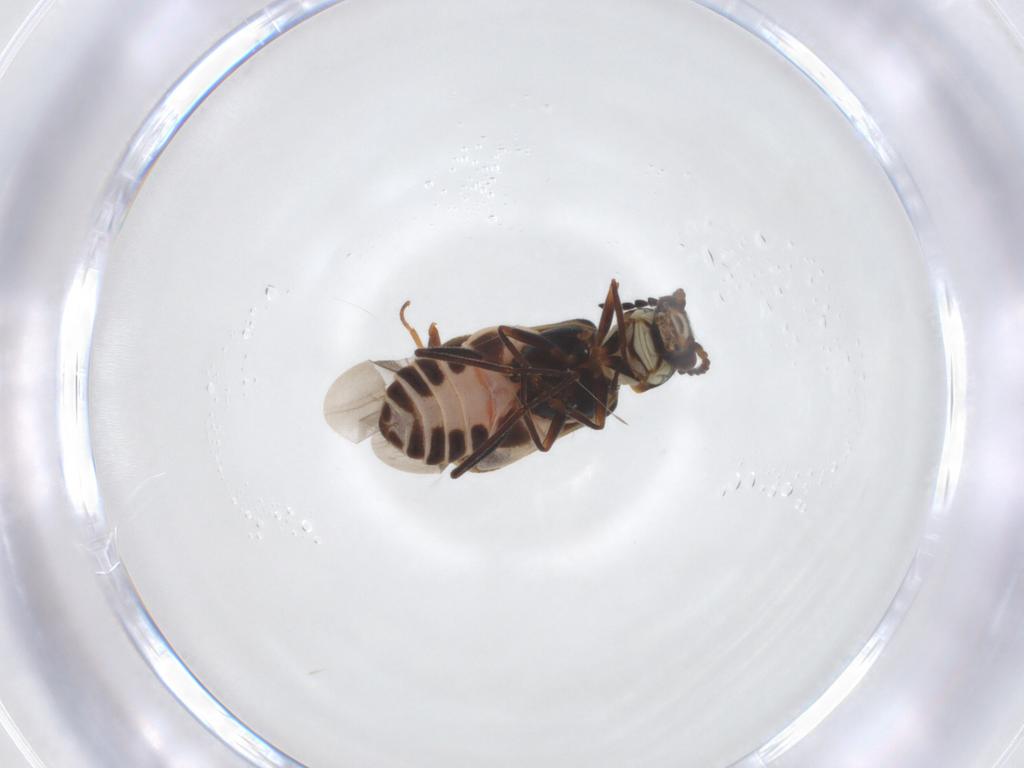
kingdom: Animalia
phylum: Arthropoda
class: Insecta
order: Coleoptera
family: Melyridae
